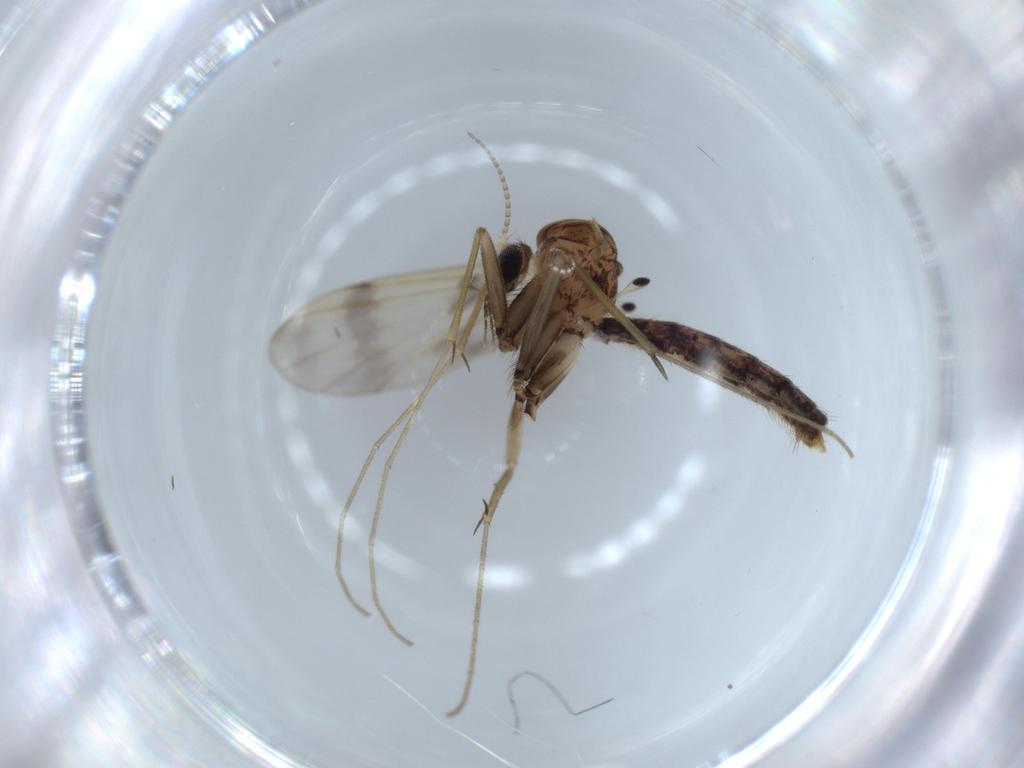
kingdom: Animalia
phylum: Arthropoda
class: Insecta
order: Diptera
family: Mycetophilidae
